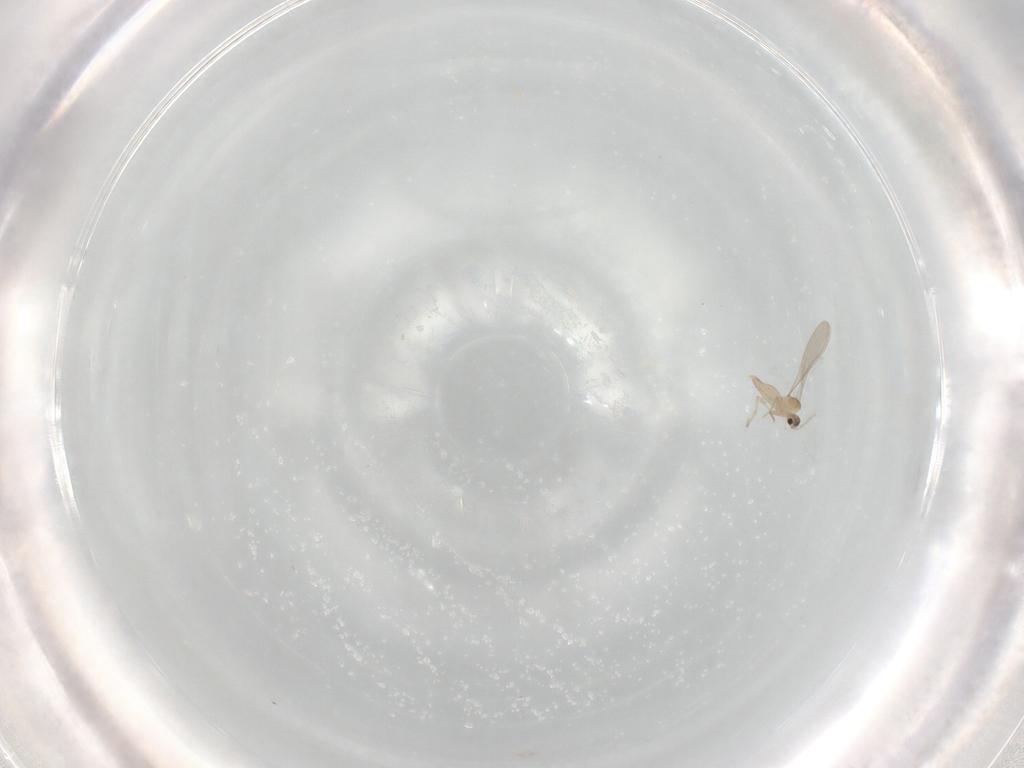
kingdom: Animalia
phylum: Arthropoda
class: Insecta
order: Diptera
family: Cecidomyiidae
